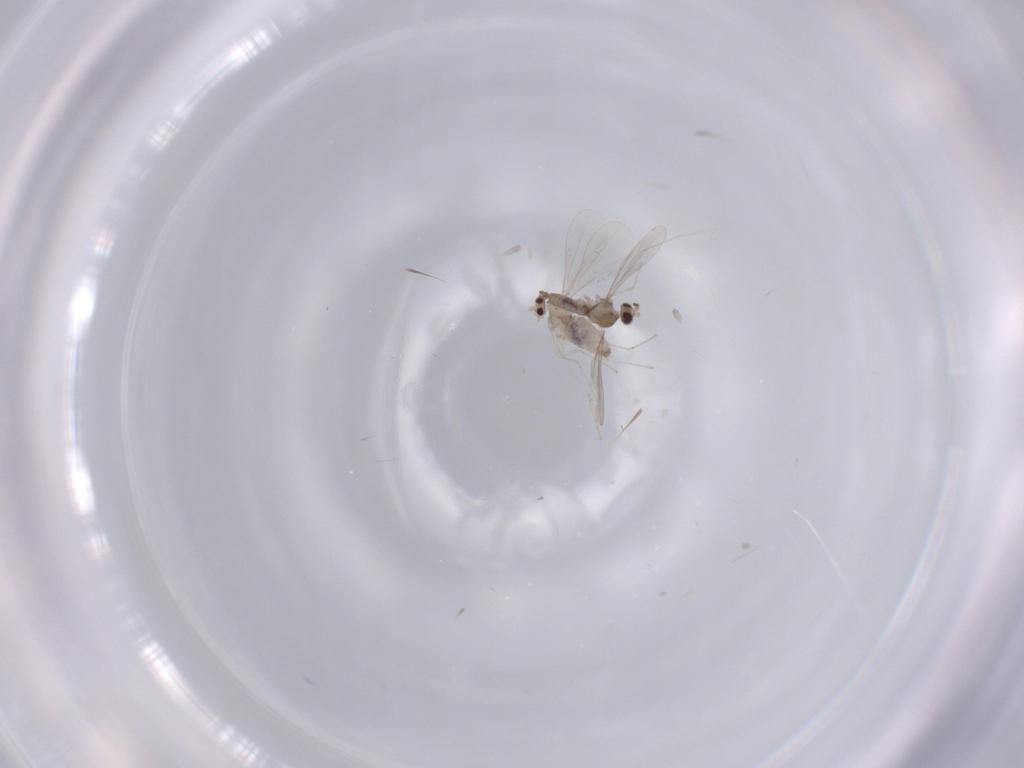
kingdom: Animalia
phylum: Arthropoda
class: Insecta
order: Diptera
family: Cecidomyiidae
